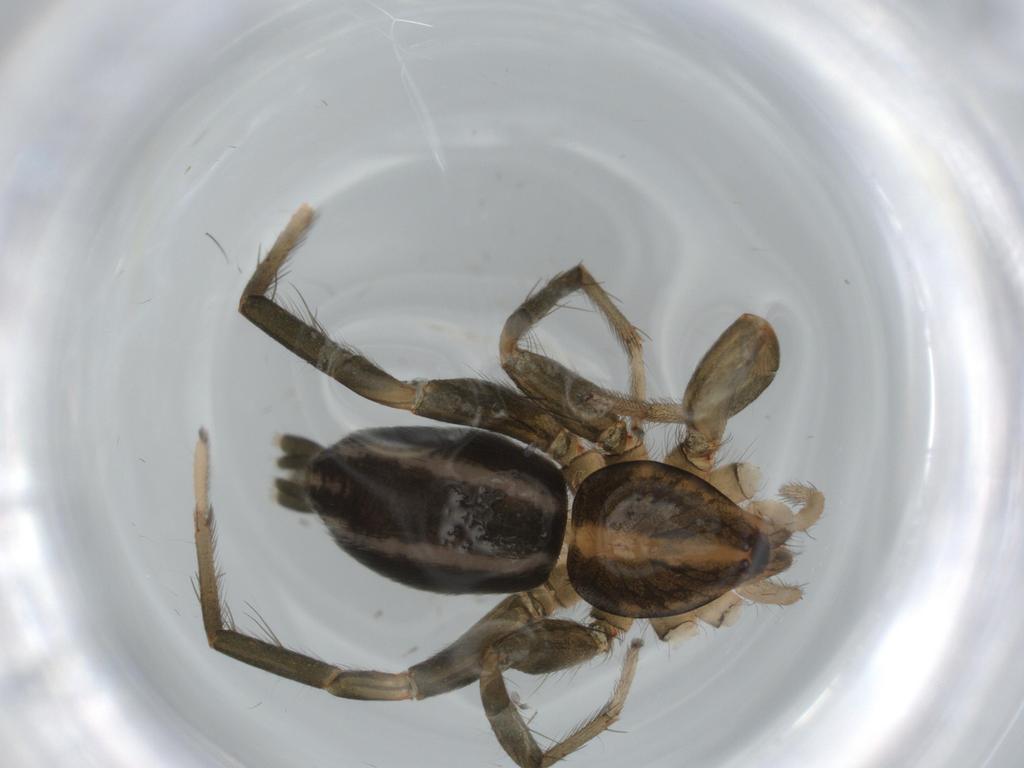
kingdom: Animalia
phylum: Arthropoda
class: Arachnida
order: Araneae
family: Gnaphosidae
